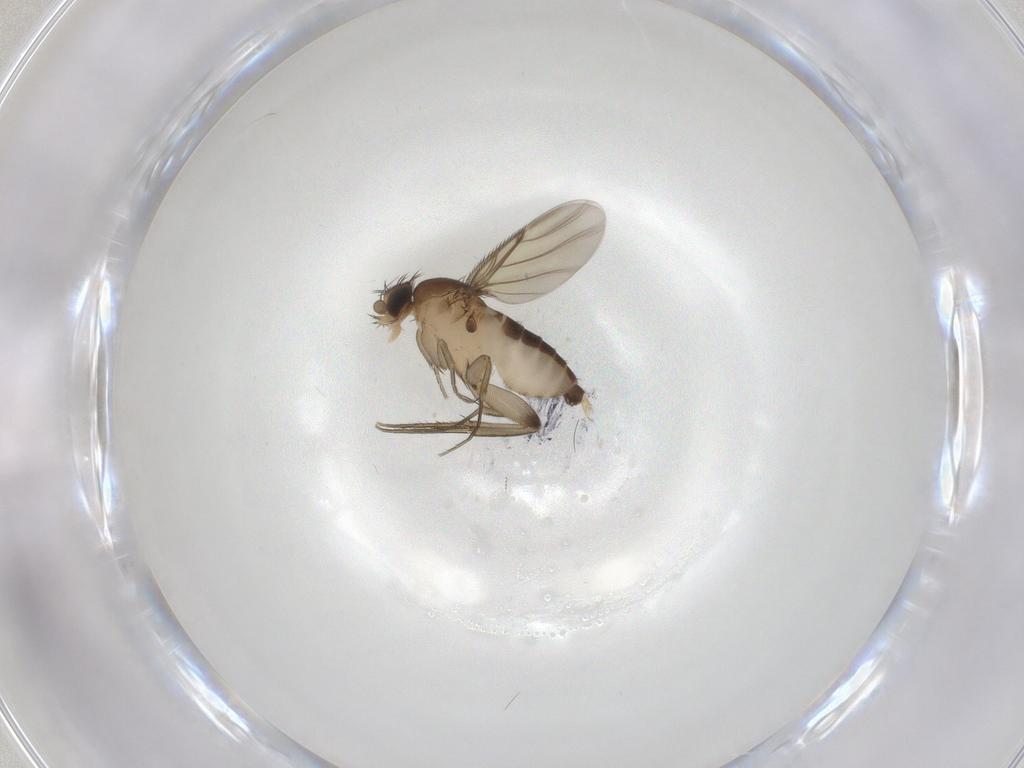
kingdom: Animalia
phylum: Arthropoda
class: Insecta
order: Diptera
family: Phoridae
